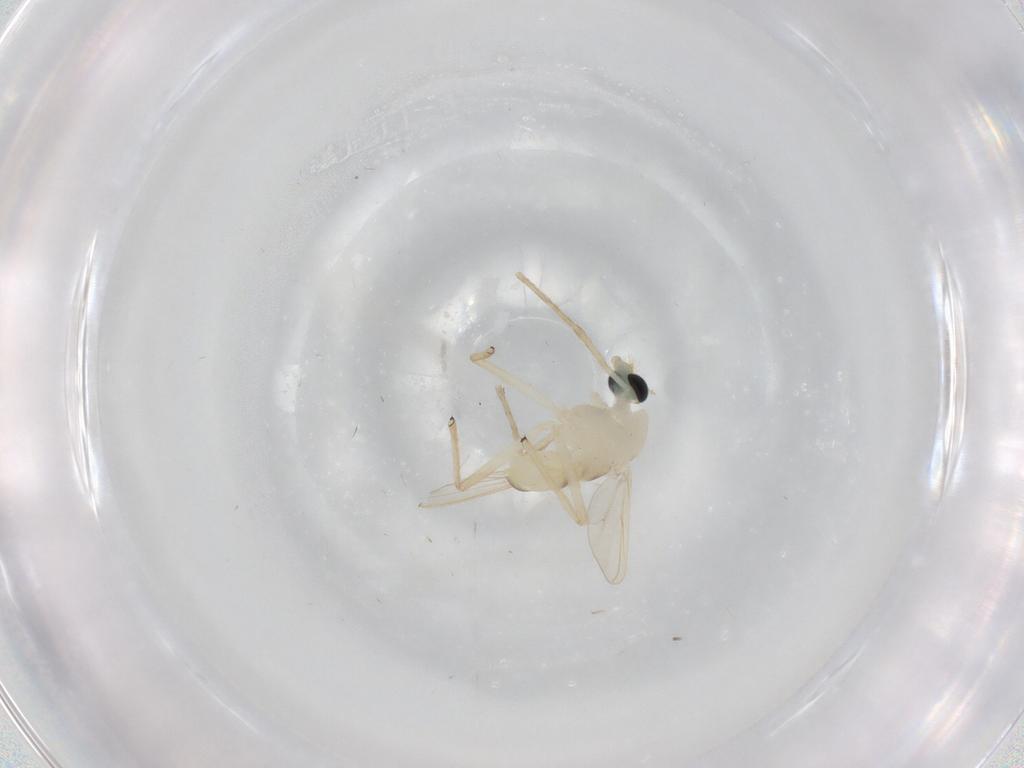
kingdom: Animalia
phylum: Arthropoda
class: Insecta
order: Diptera
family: Chironomidae
